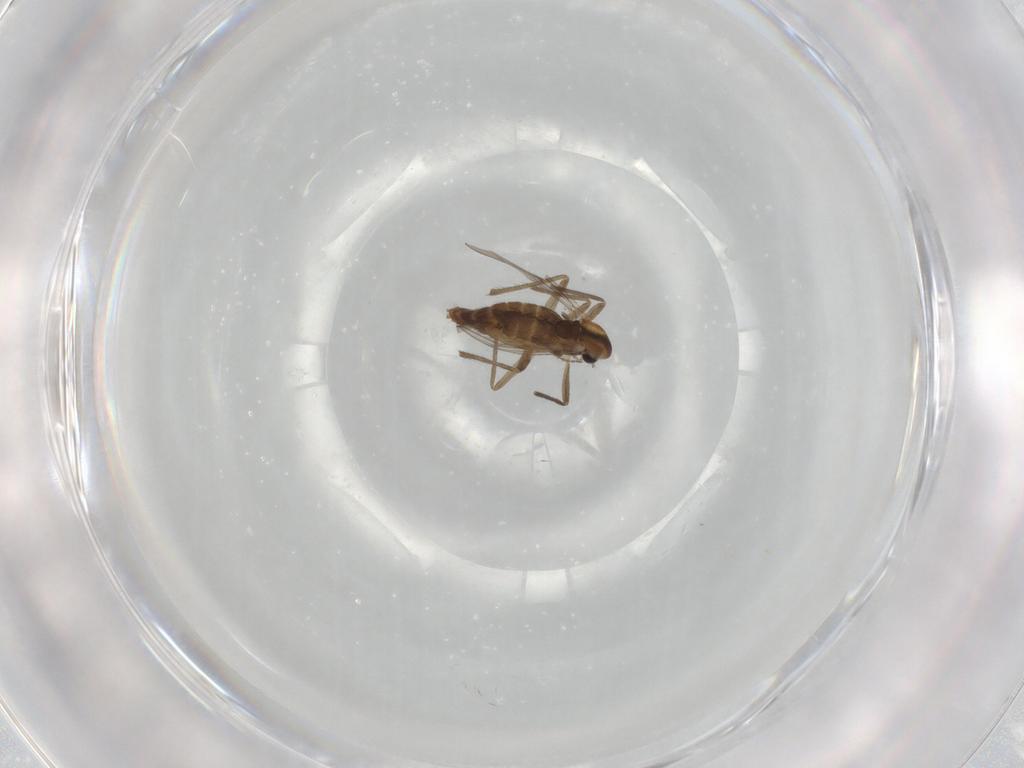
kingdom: Animalia
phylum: Arthropoda
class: Insecta
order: Diptera
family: Chironomidae
